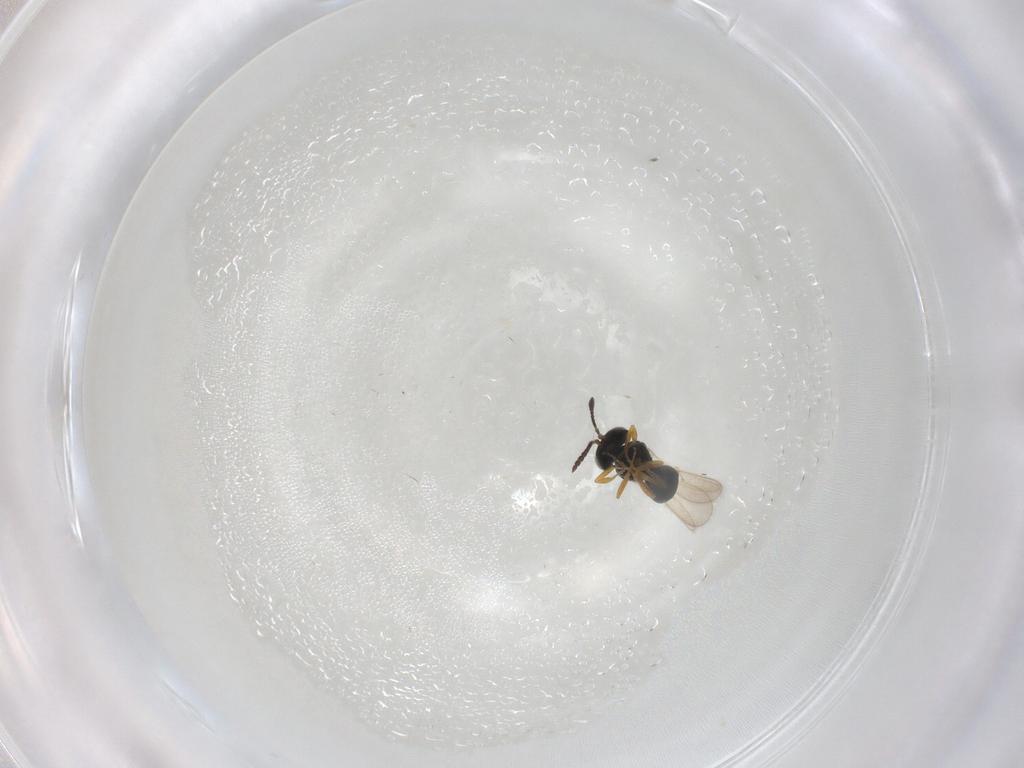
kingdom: Animalia
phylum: Arthropoda
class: Insecta
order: Hymenoptera
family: Scelionidae
